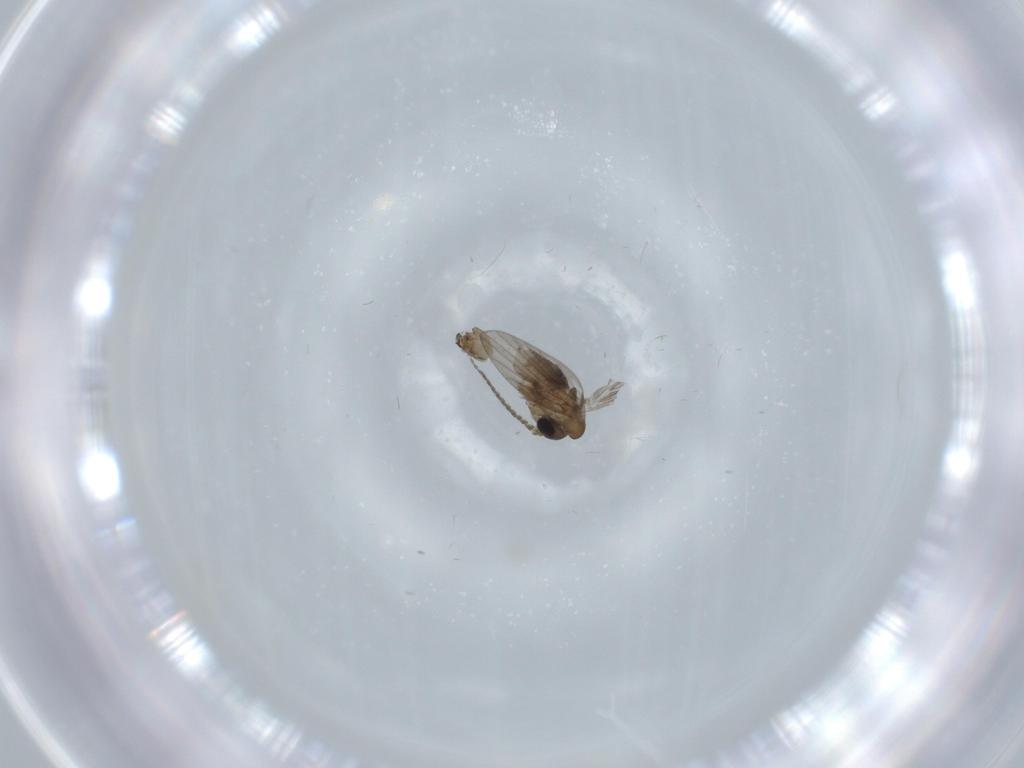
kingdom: Animalia
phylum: Arthropoda
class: Insecta
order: Diptera
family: Psychodidae
